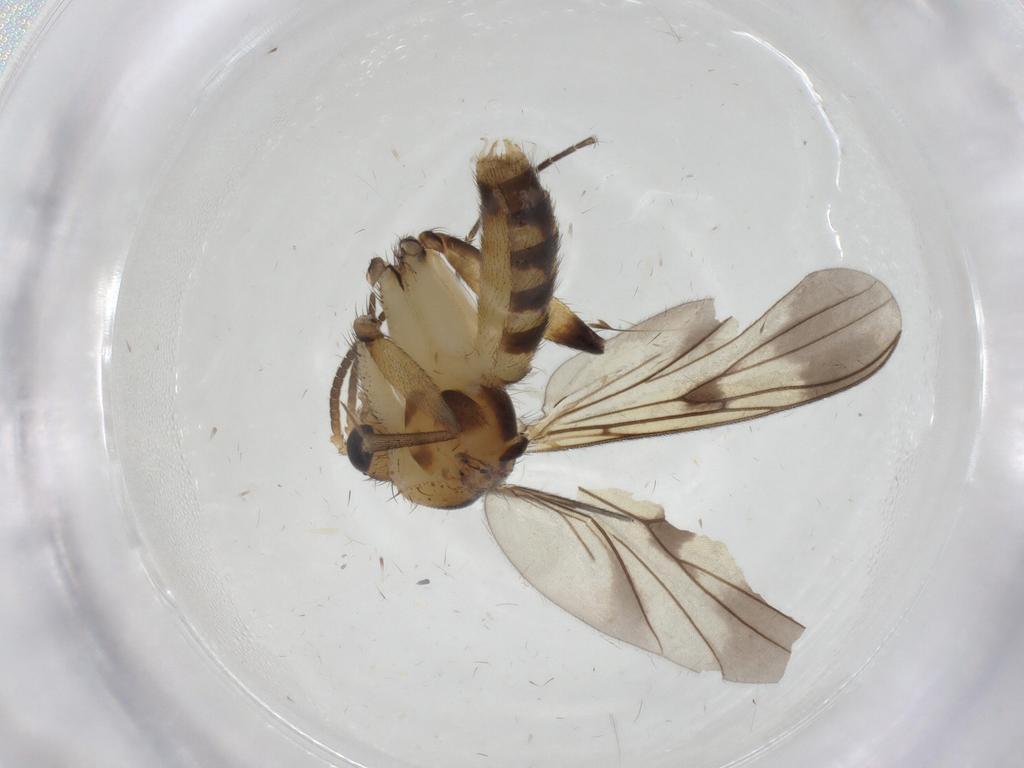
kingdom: Animalia
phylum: Arthropoda
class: Insecta
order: Diptera
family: Mycetophilidae
